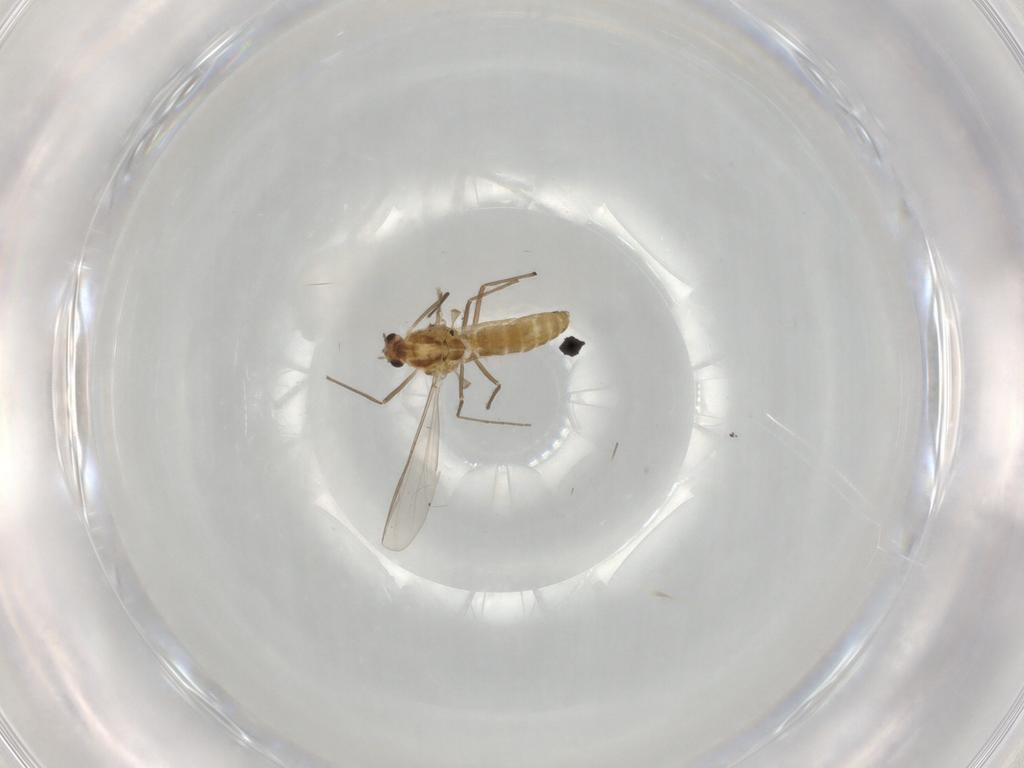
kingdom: Animalia
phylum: Arthropoda
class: Insecta
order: Diptera
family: Chironomidae
